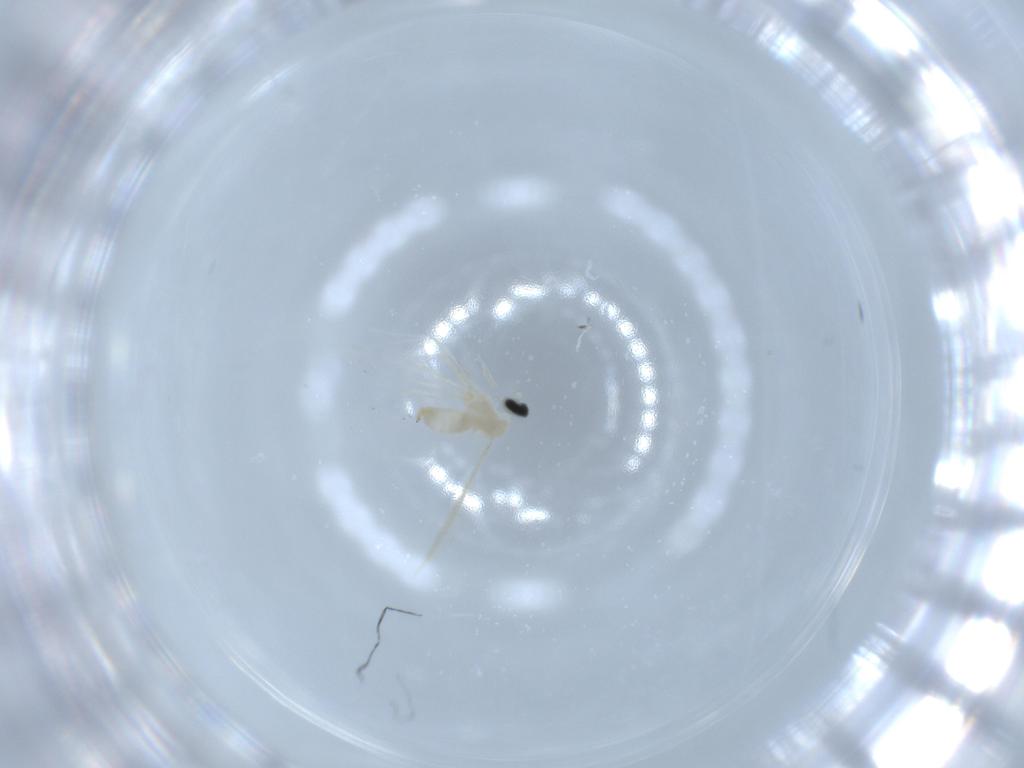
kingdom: Animalia
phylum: Arthropoda
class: Insecta
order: Diptera
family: Cecidomyiidae
